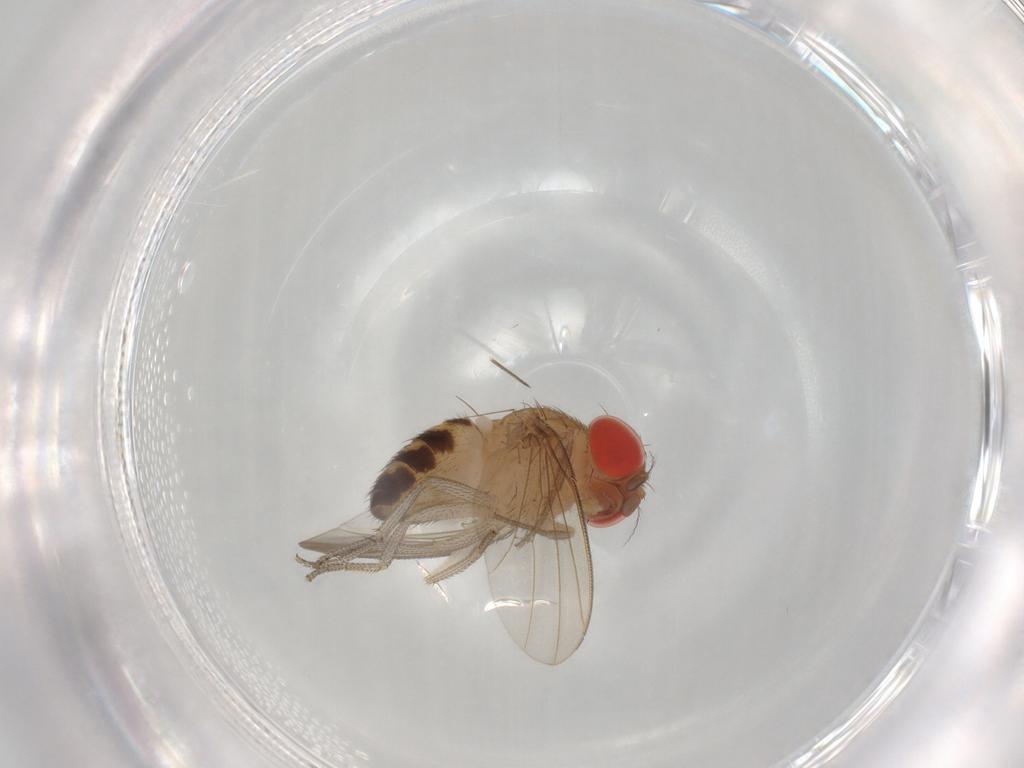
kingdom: Animalia
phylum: Arthropoda
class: Insecta
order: Diptera
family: Drosophilidae
